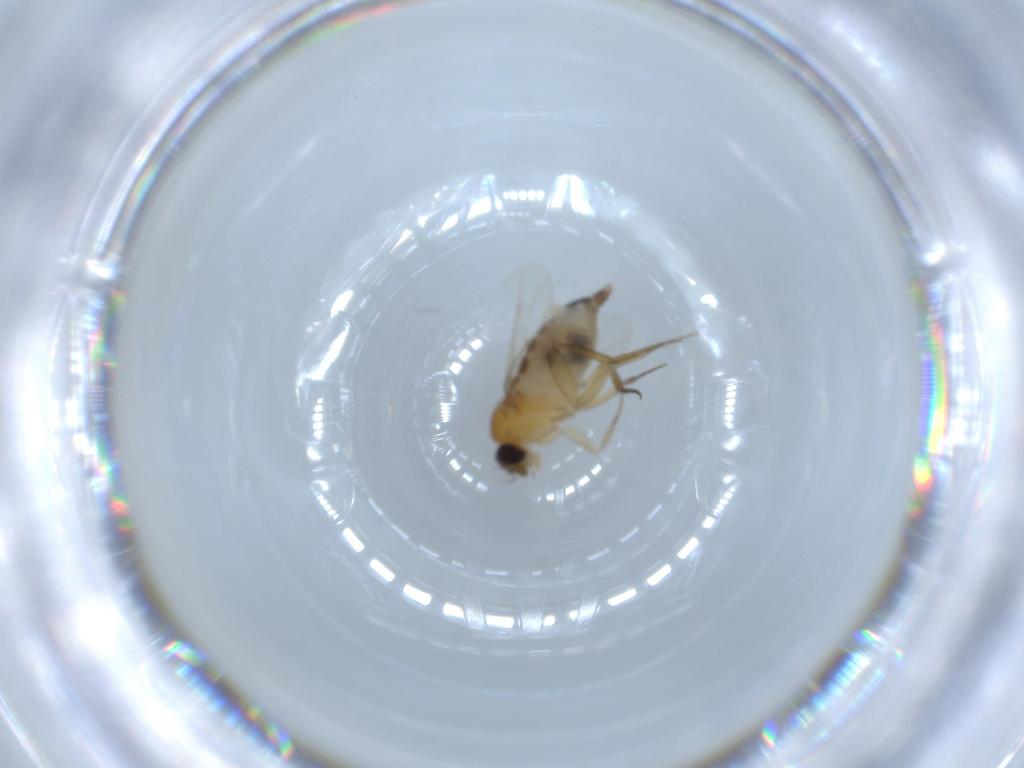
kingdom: Animalia
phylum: Arthropoda
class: Insecta
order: Diptera
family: Phoridae
